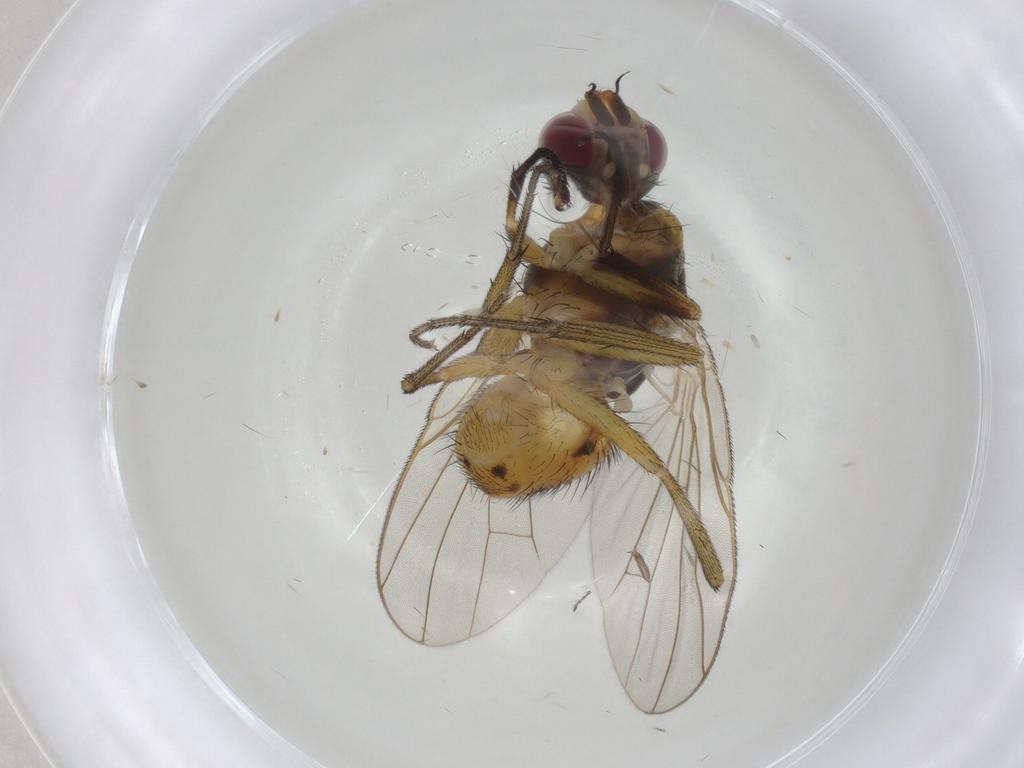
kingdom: Animalia
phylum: Arthropoda
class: Insecta
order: Diptera
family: Muscidae
